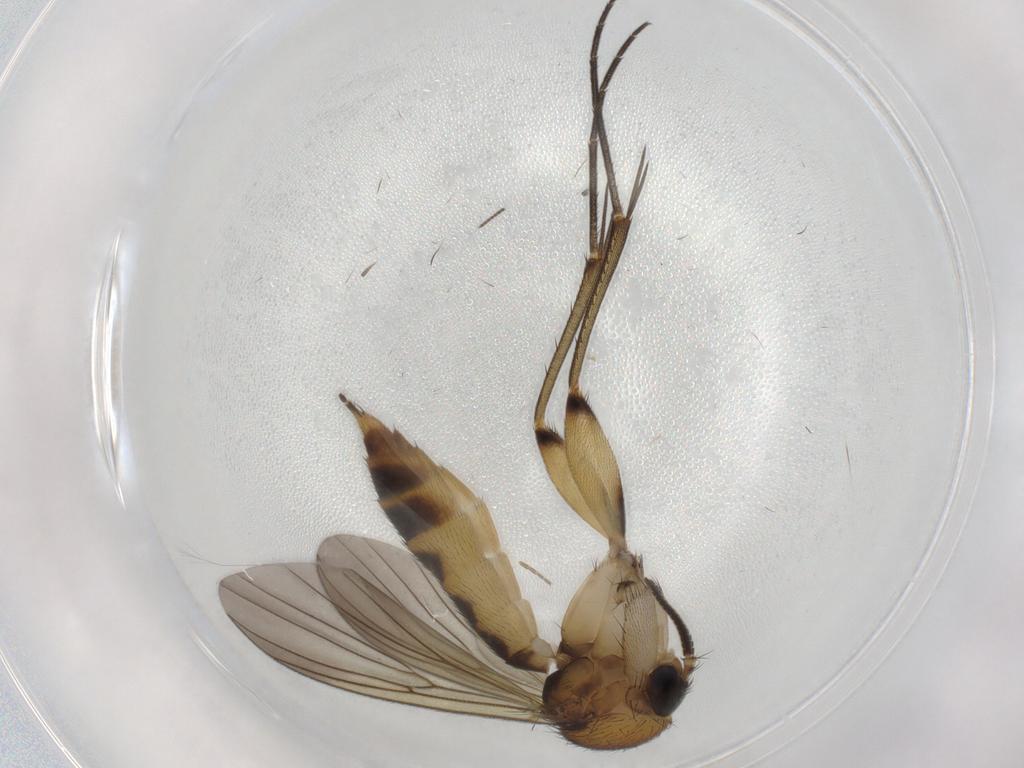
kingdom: Animalia
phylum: Arthropoda
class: Insecta
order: Diptera
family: Mycetophilidae
